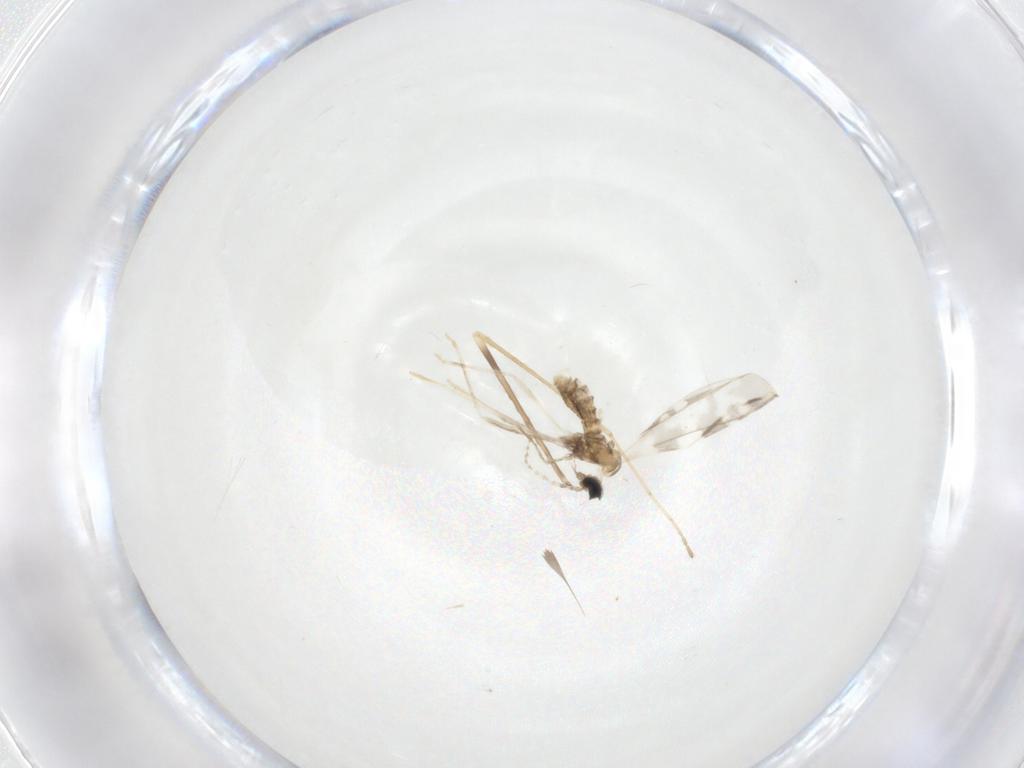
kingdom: Animalia
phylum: Arthropoda
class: Insecta
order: Diptera
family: Cecidomyiidae
